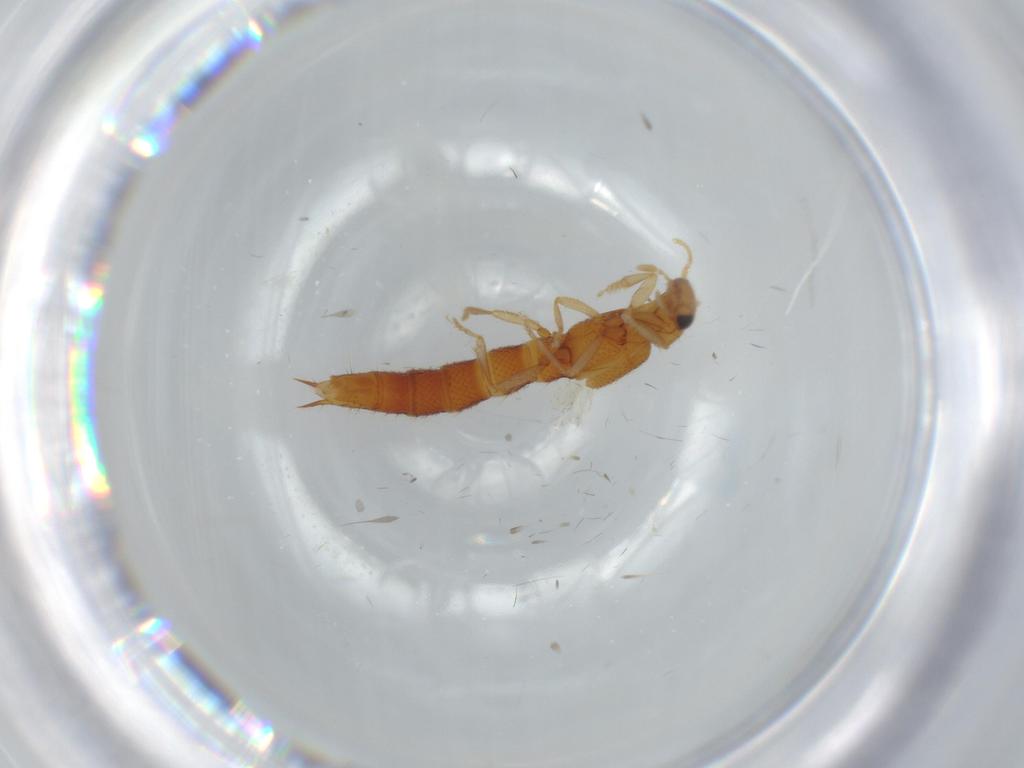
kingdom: Animalia
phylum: Arthropoda
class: Insecta
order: Coleoptera
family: Staphylinidae
